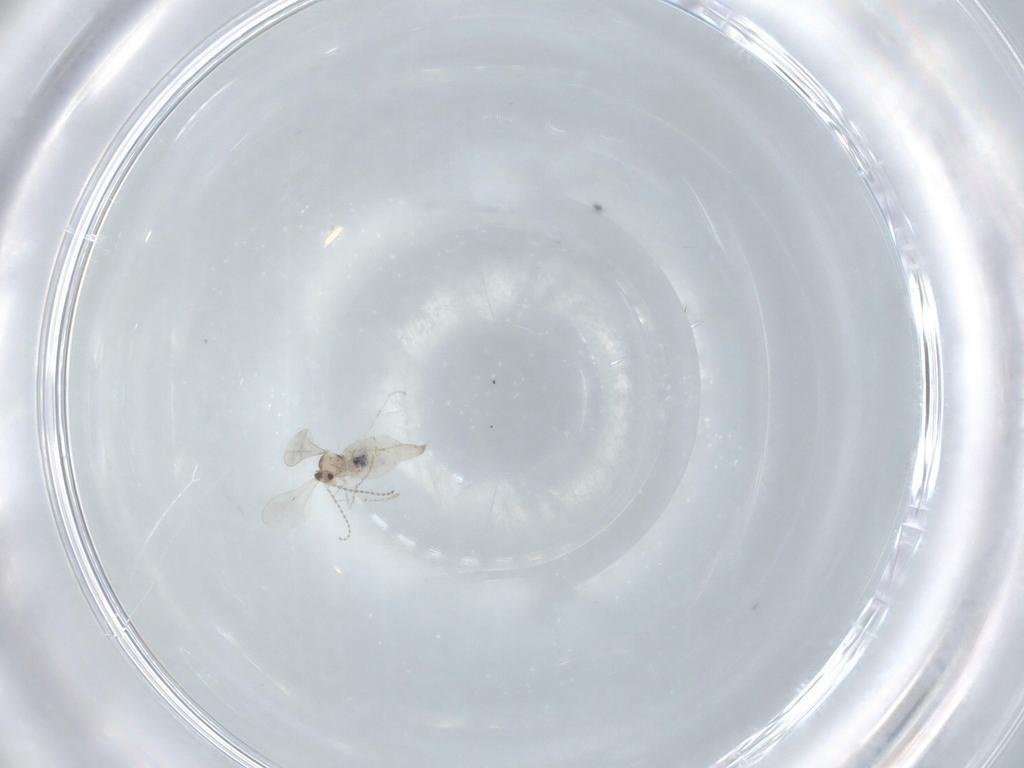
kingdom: Animalia
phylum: Arthropoda
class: Insecta
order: Diptera
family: Cecidomyiidae
